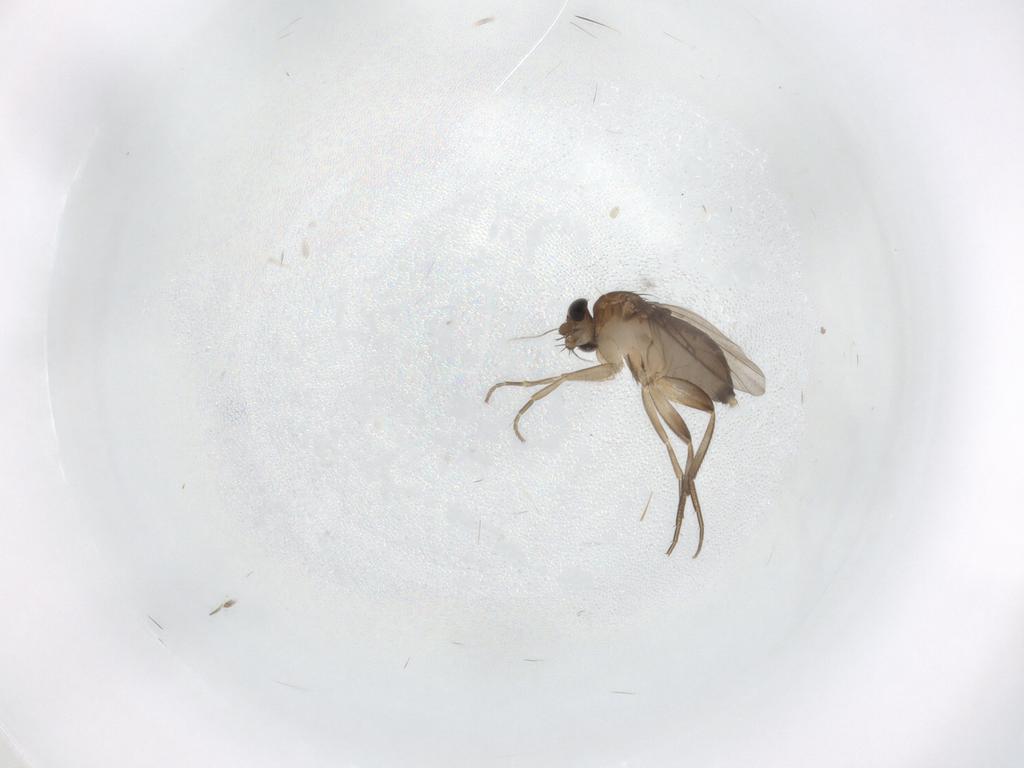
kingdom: Animalia
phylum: Arthropoda
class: Insecta
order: Diptera
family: Phoridae
